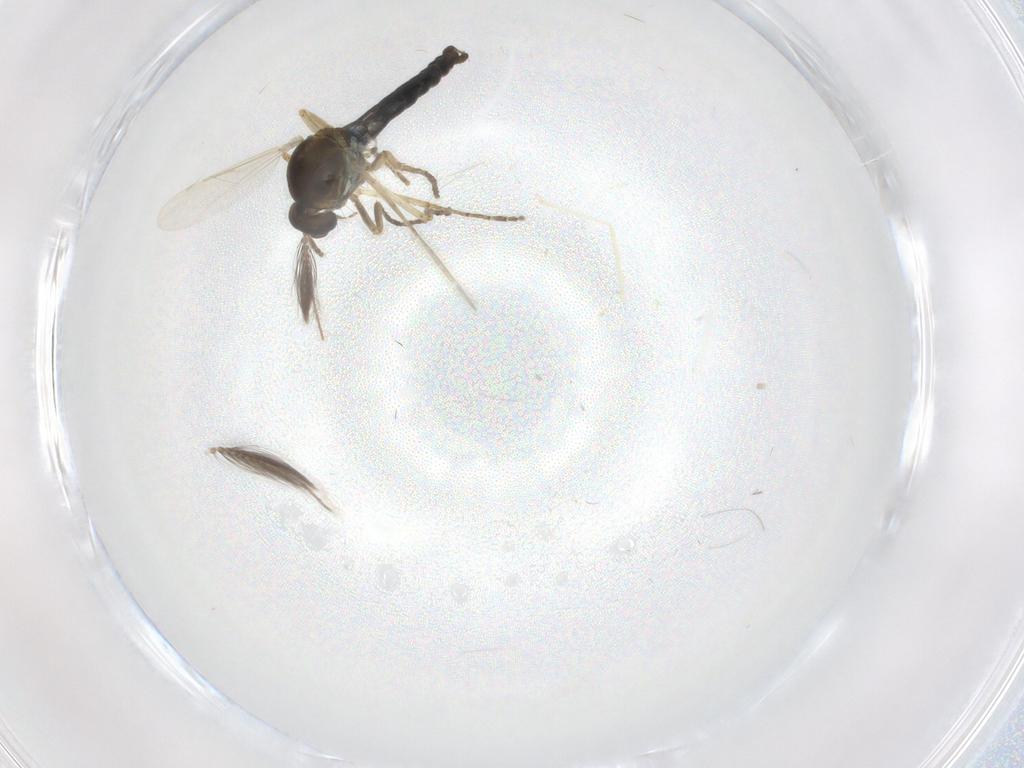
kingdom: Animalia
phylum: Arthropoda
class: Insecta
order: Diptera
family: Ceratopogonidae
